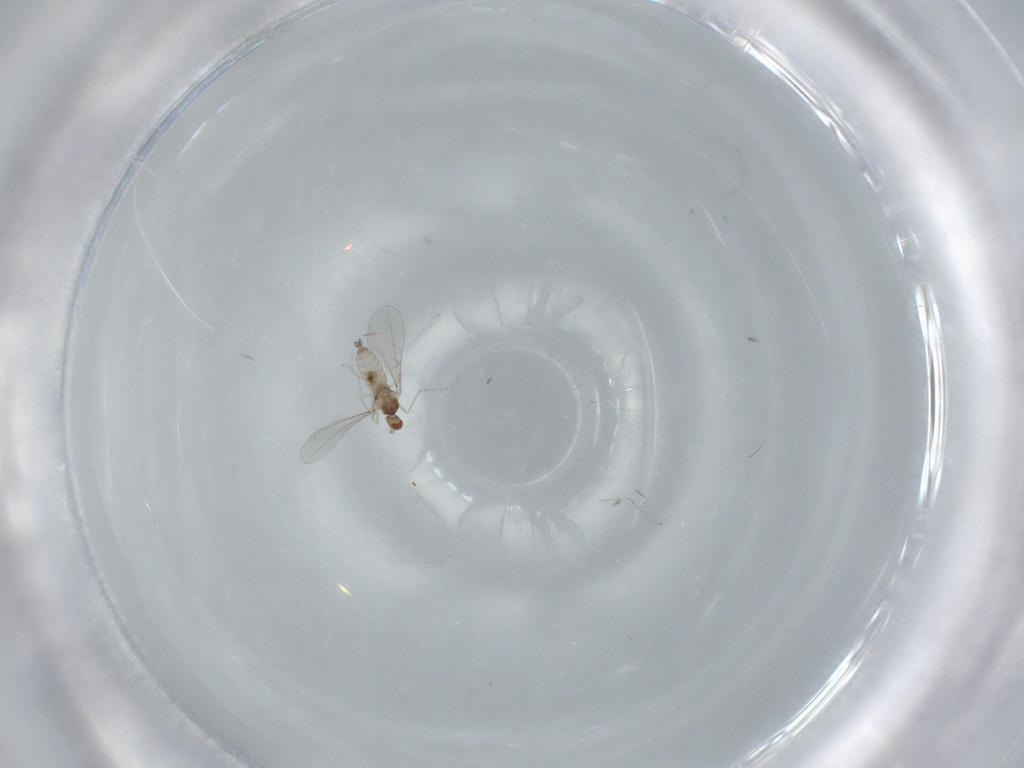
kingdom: Animalia
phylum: Arthropoda
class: Insecta
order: Diptera
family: Cecidomyiidae
